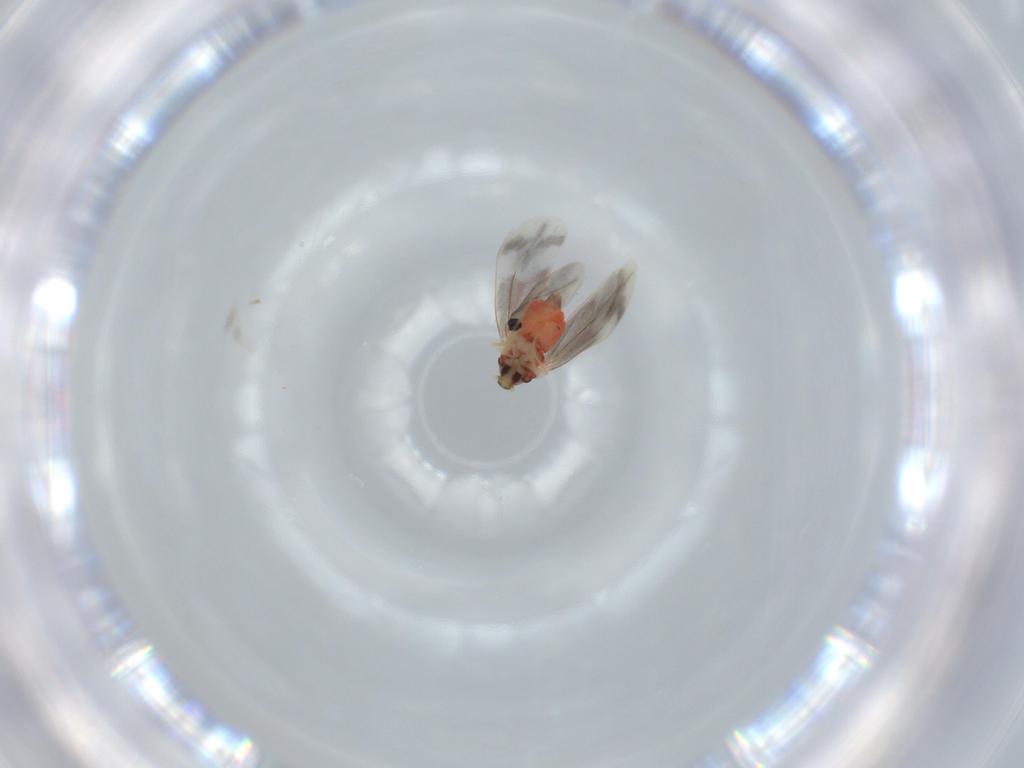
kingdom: Animalia
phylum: Arthropoda
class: Insecta
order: Hemiptera
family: Aleyrodidae
